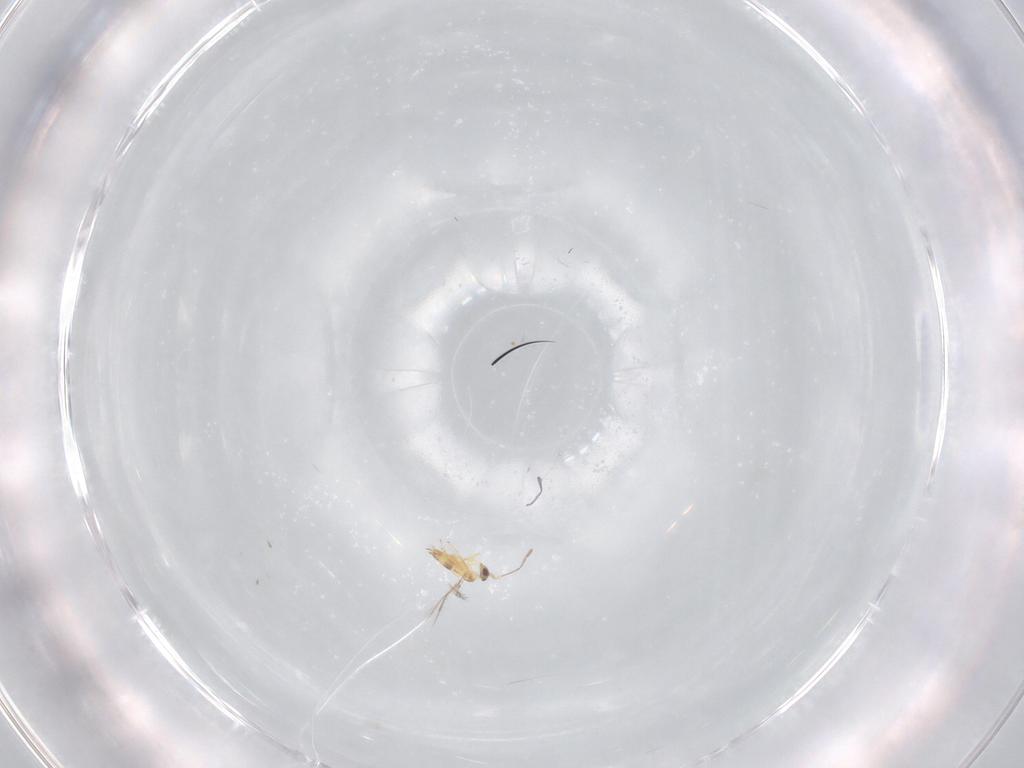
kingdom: Animalia
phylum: Arthropoda
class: Insecta
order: Hymenoptera
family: Mymaridae
